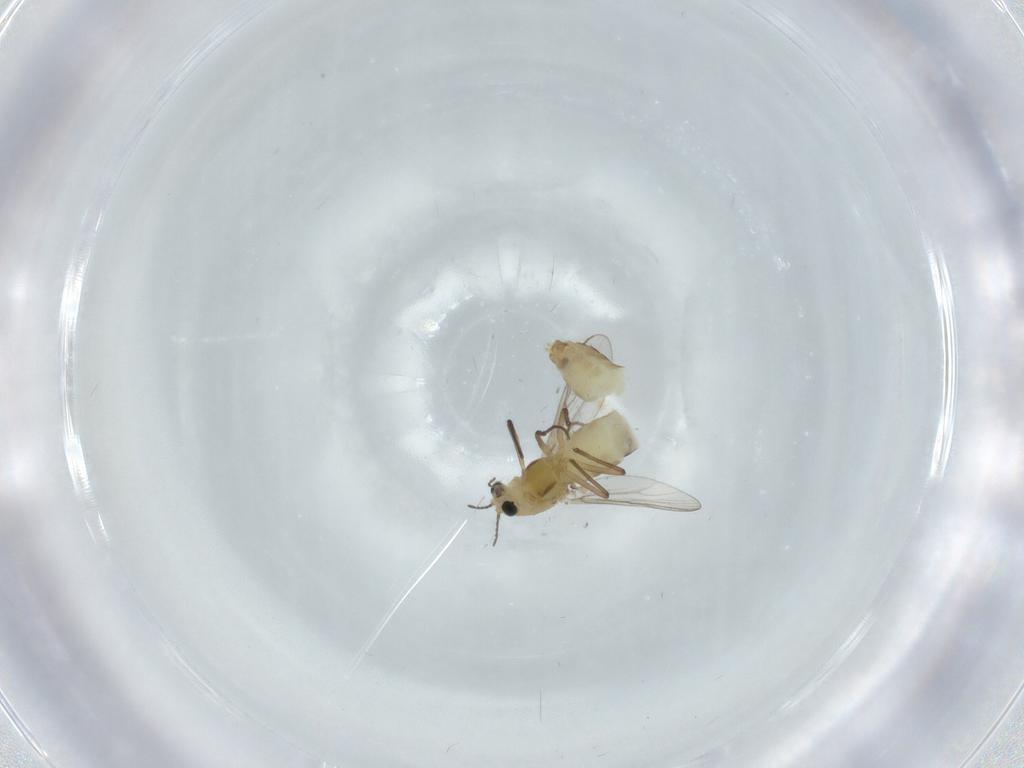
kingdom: Animalia
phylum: Arthropoda
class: Insecta
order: Diptera
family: Chironomidae
